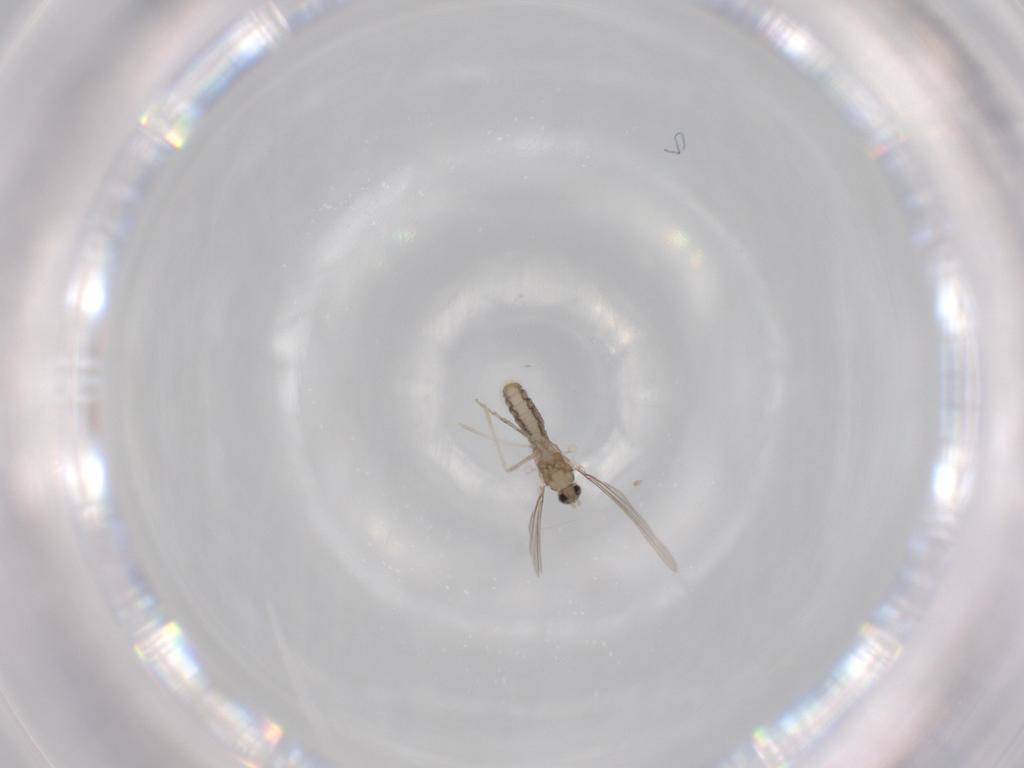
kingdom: Animalia
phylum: Arthropoda
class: Insecta
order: Diptera
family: Cecidomyiidae
